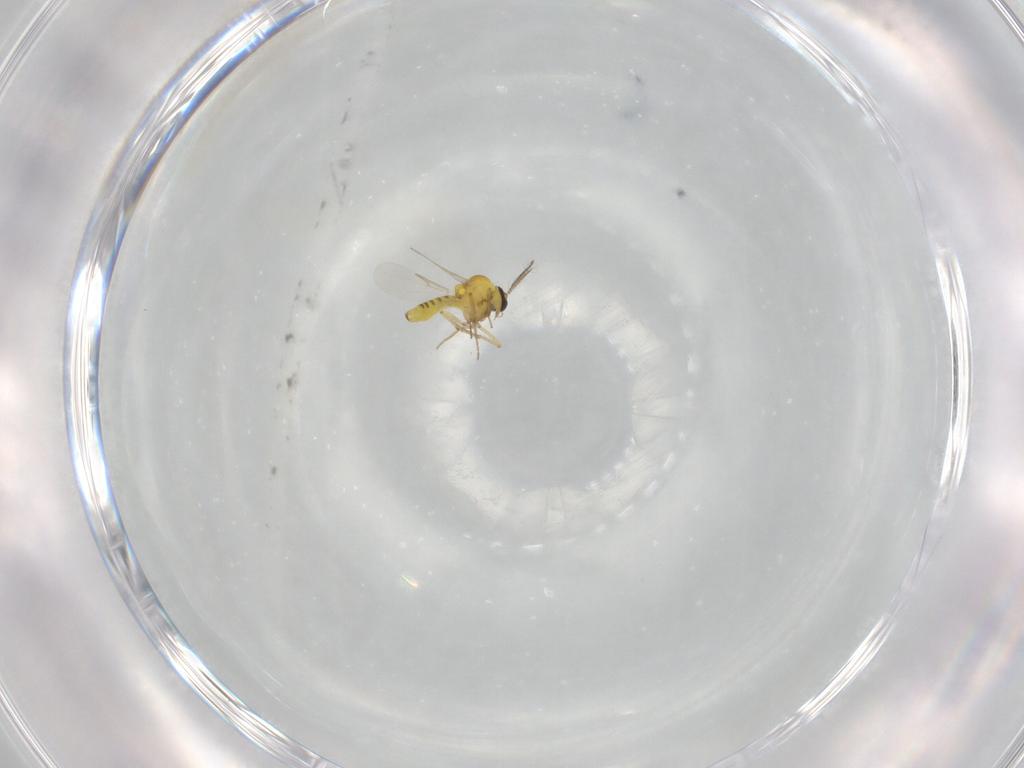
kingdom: Animalia
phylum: Arthropoda
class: Insecta
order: Diptera
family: Ceratopogonidae
